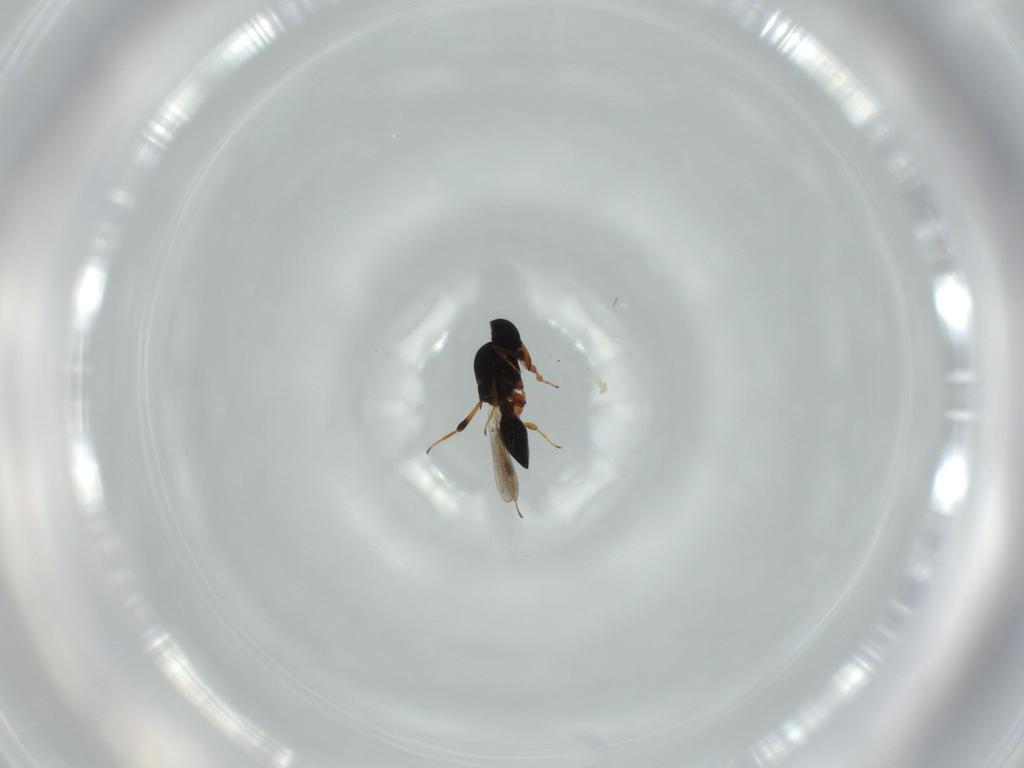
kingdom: Animalia
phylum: Arthropoda
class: Insecta
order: Hymenoptera
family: Platygastridae
